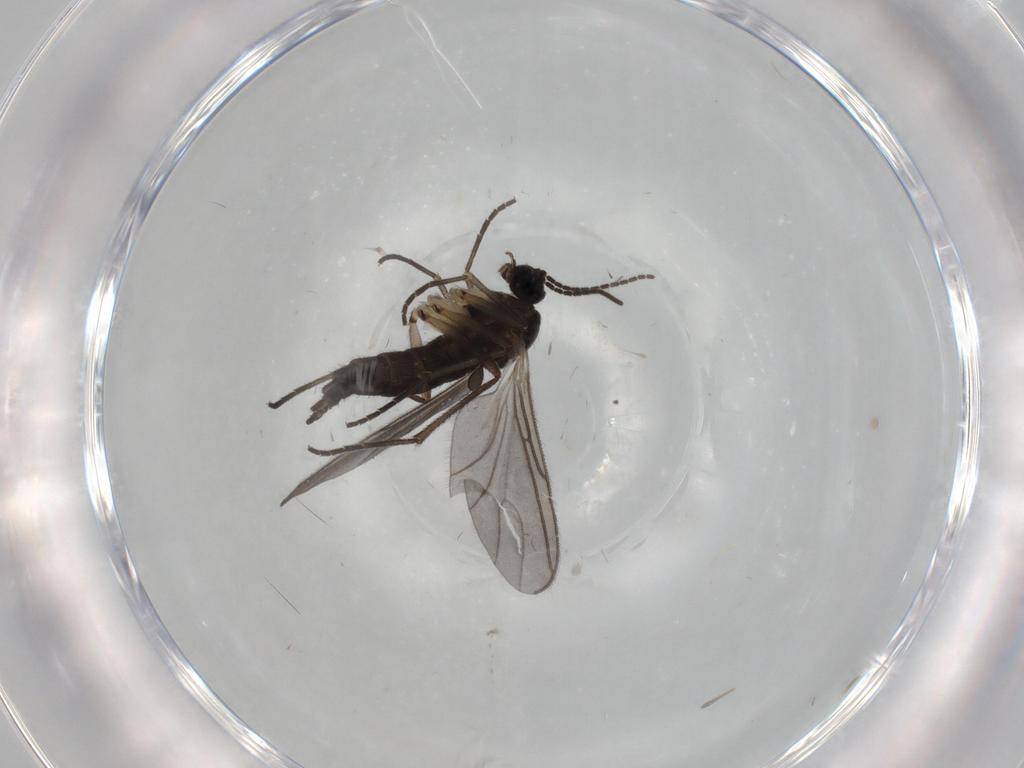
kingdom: Animalia
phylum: Arthropoda
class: Insecta
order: Diptera
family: Sciaridae
